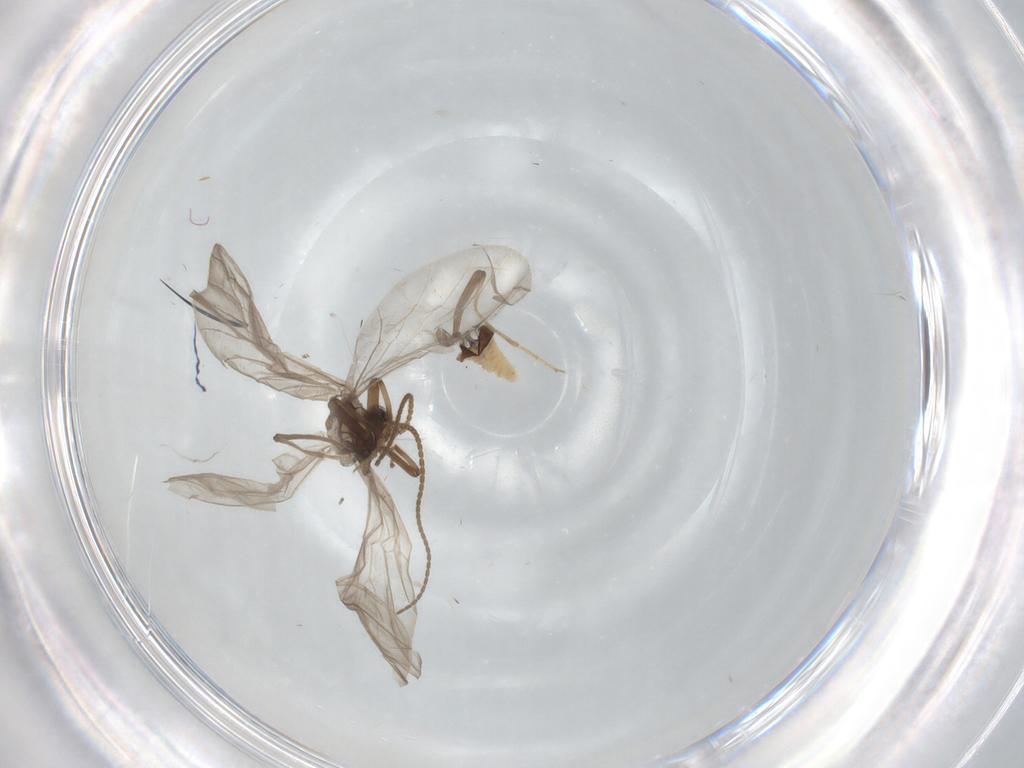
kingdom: Animalia
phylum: Arthropoda
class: Insecta
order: Neuroptera
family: Coniopterygidae
